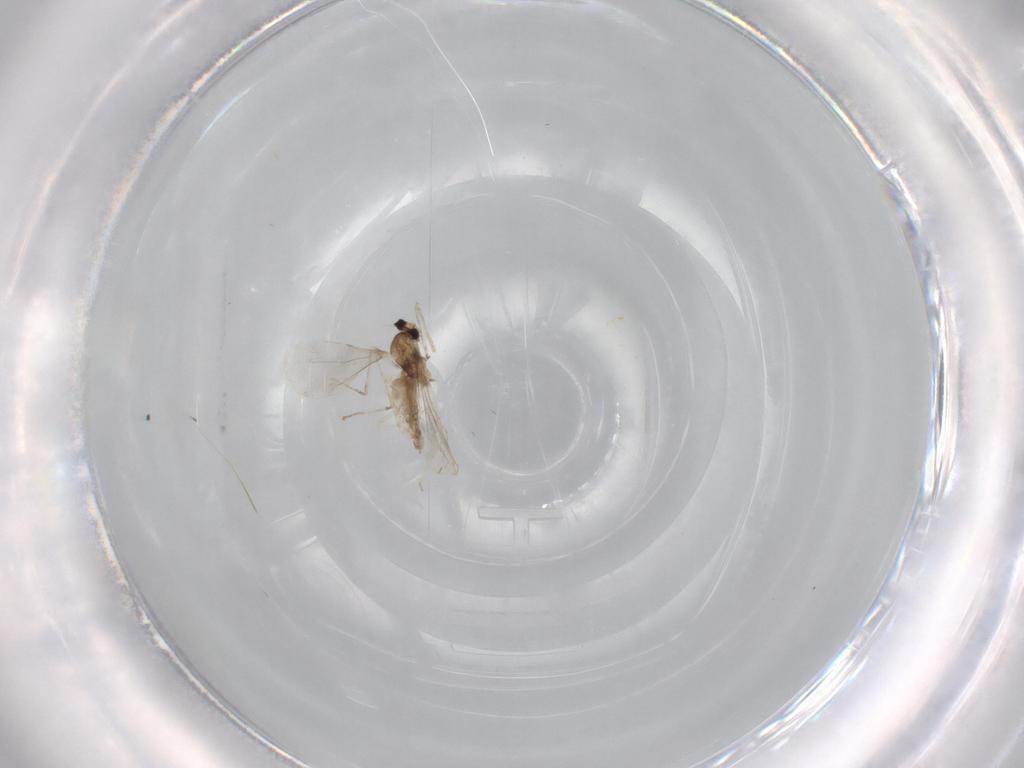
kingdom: Animalia
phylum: Arthropoda
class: Insecta
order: Diptera
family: Cecidomyiidae
